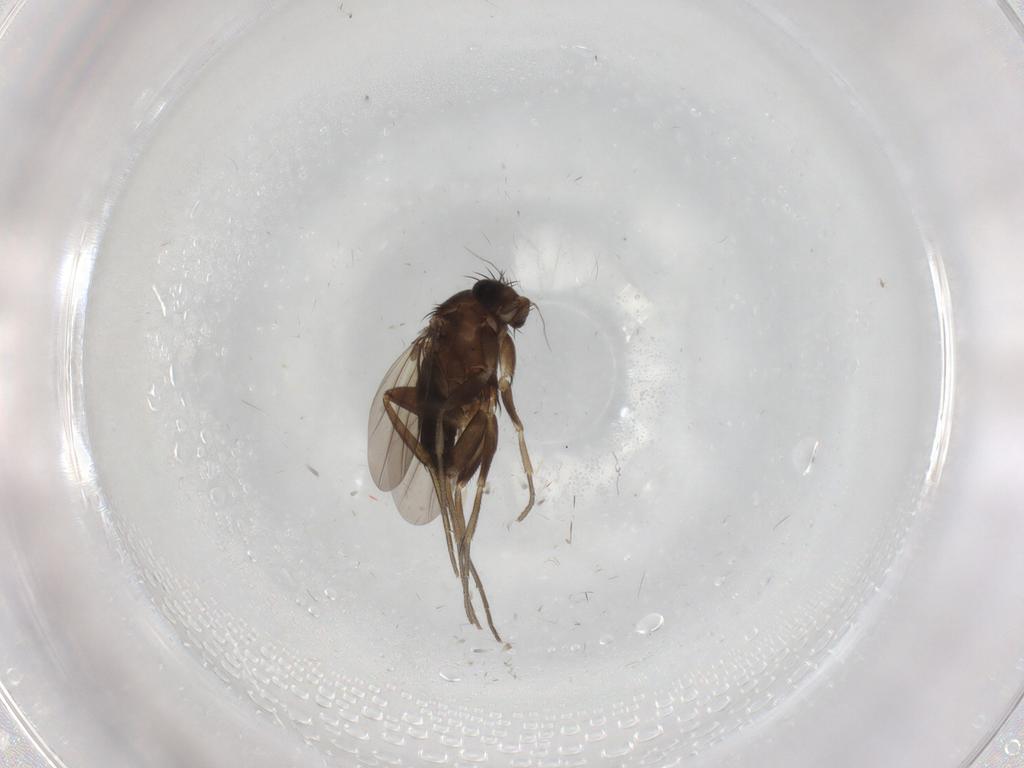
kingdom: Animalia
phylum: Arthropoda
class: Insecta
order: Diptera
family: Phoridae
